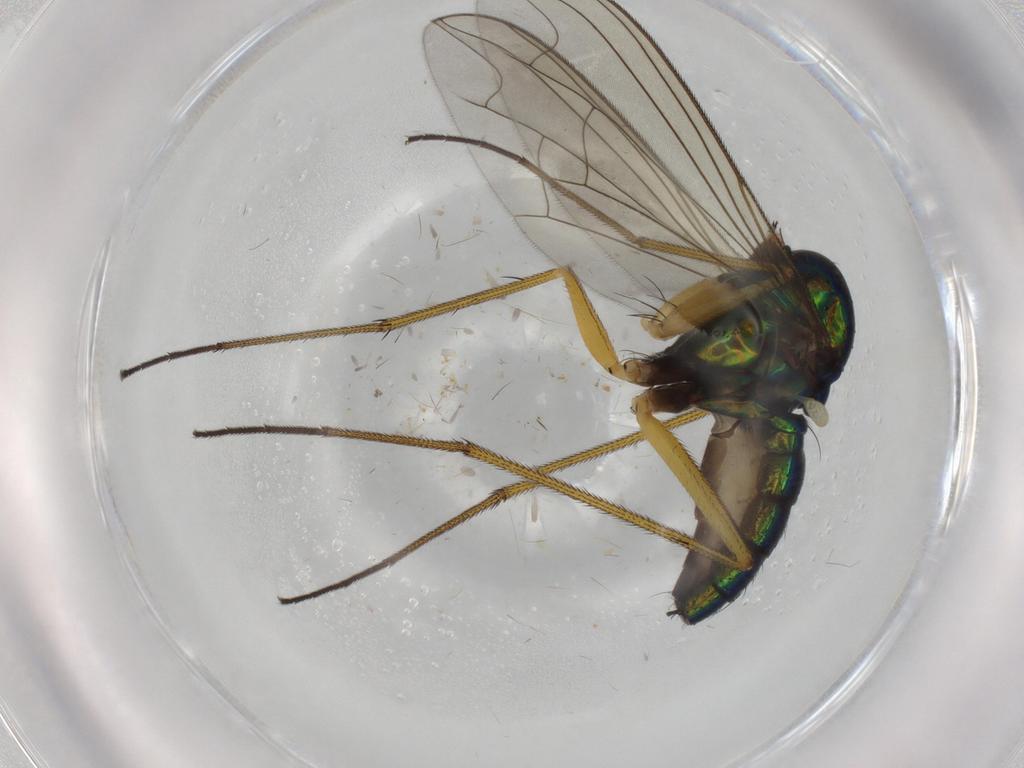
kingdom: Animalia
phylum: Arthropoda
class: Insecta
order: Diptera
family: Dolichopodidae
